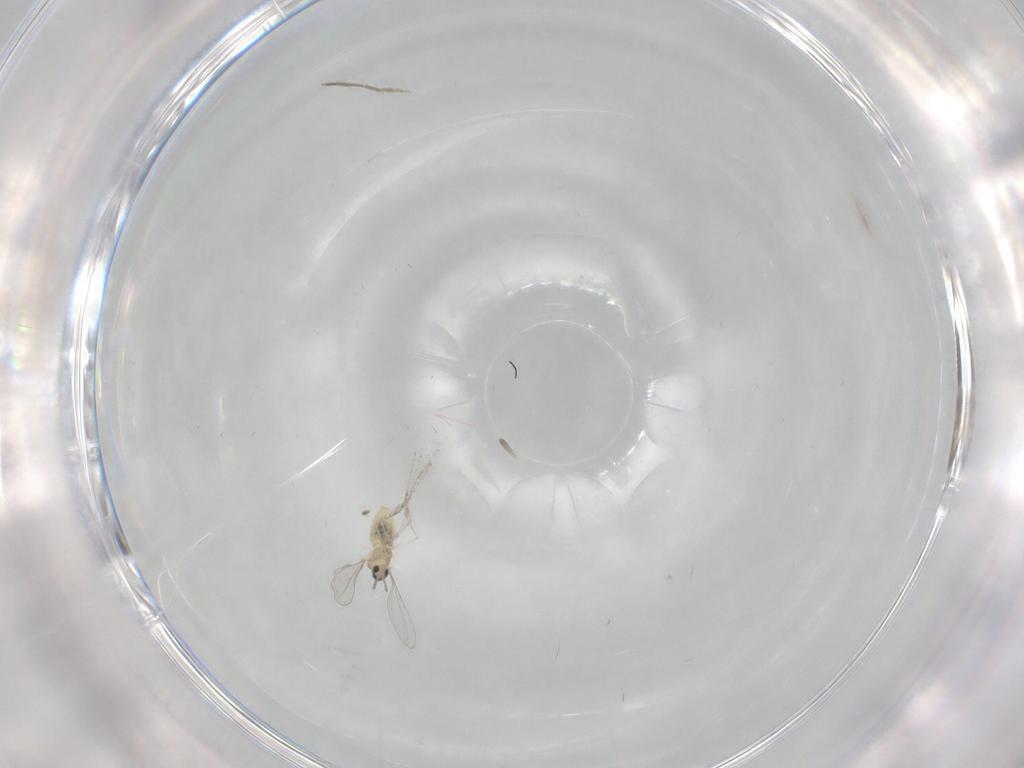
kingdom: Animalia
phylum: Arthropoda
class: Insecta
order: Diptera
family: Chironomidae
